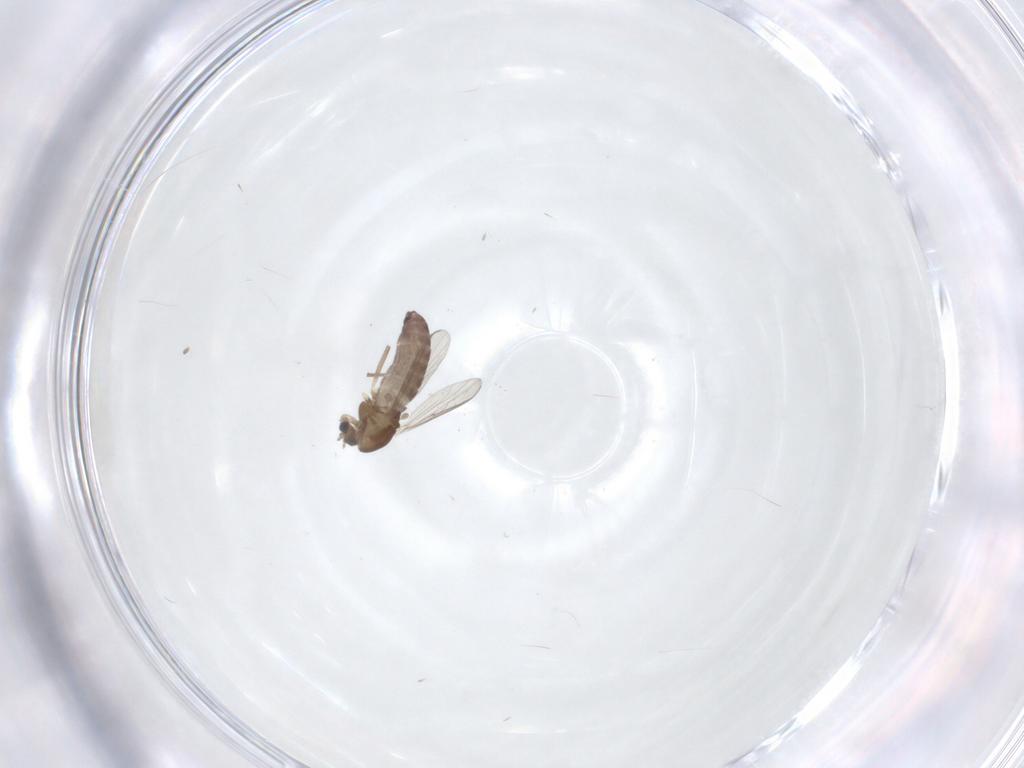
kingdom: Animalia
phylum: Arthropoda
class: Insecta
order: Diptera
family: Chironomidae
